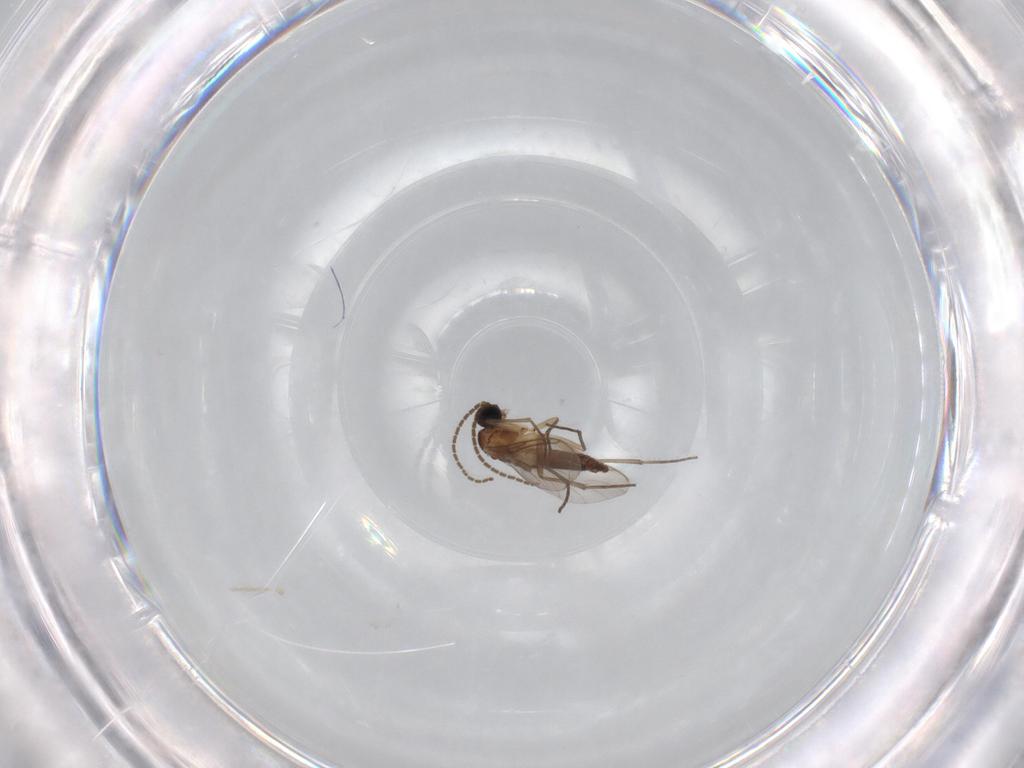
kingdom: Animalia
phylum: Arthropoda
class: Insecta
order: Diptera
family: Sciaridae
